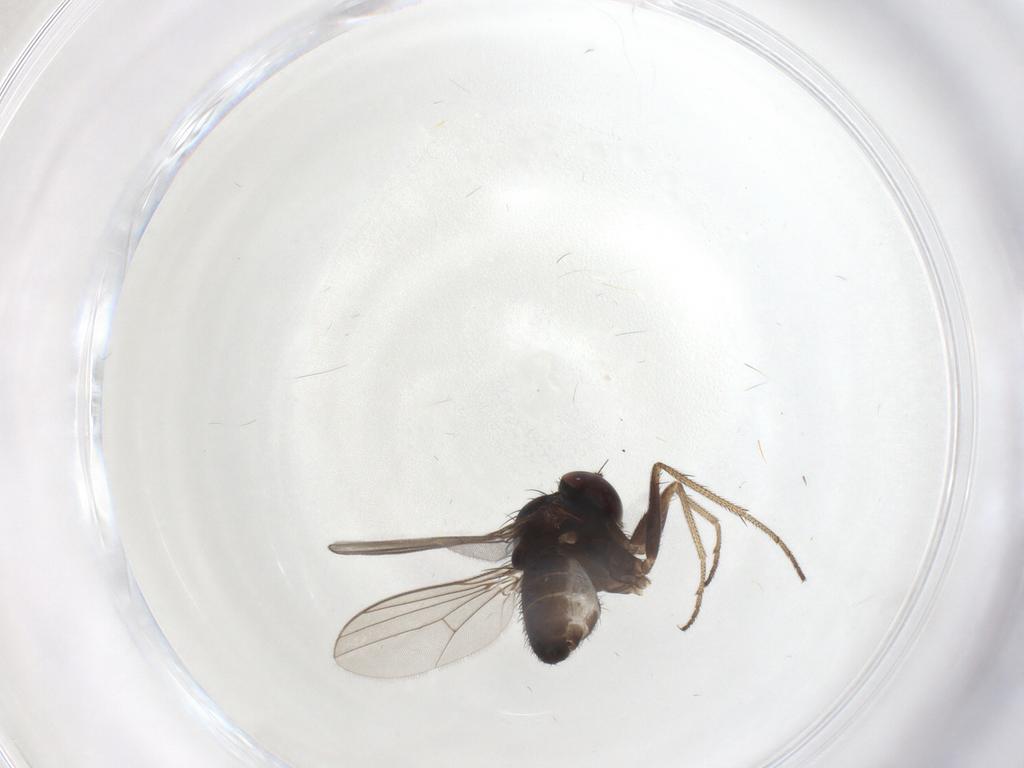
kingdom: Animalia
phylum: Arthropoda
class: Insecta
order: Diptera
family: Dolichopodidae
